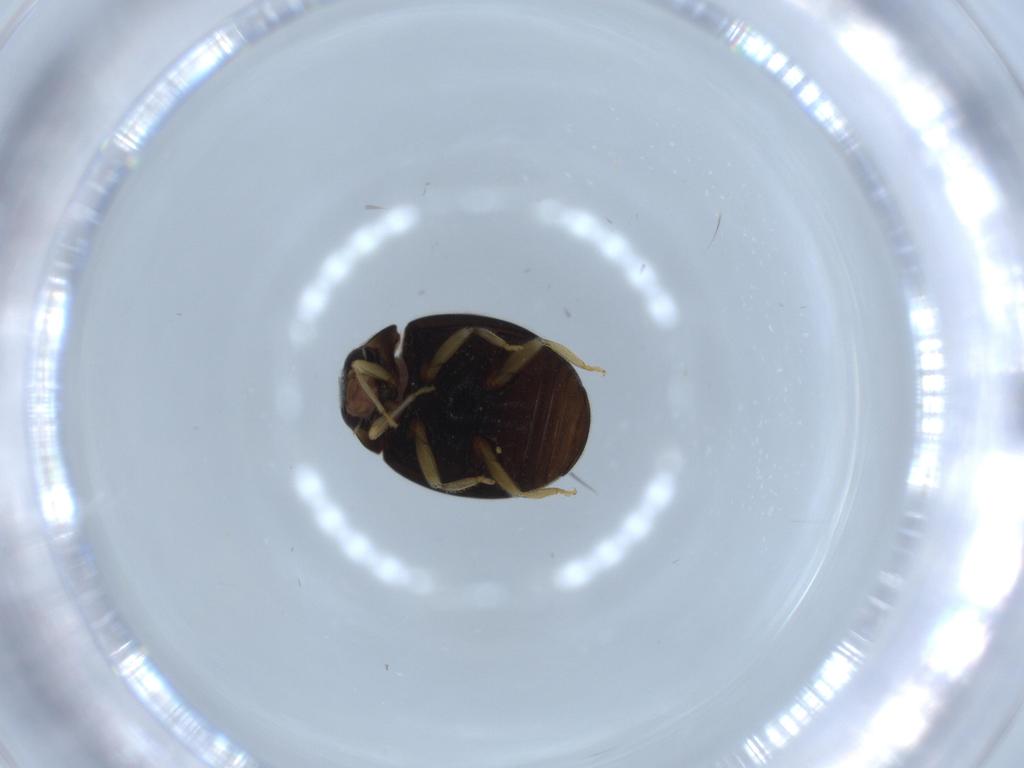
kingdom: Animalia
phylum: Arthropoda
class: Insecta
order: Coleoptera
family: Coccinellidae
